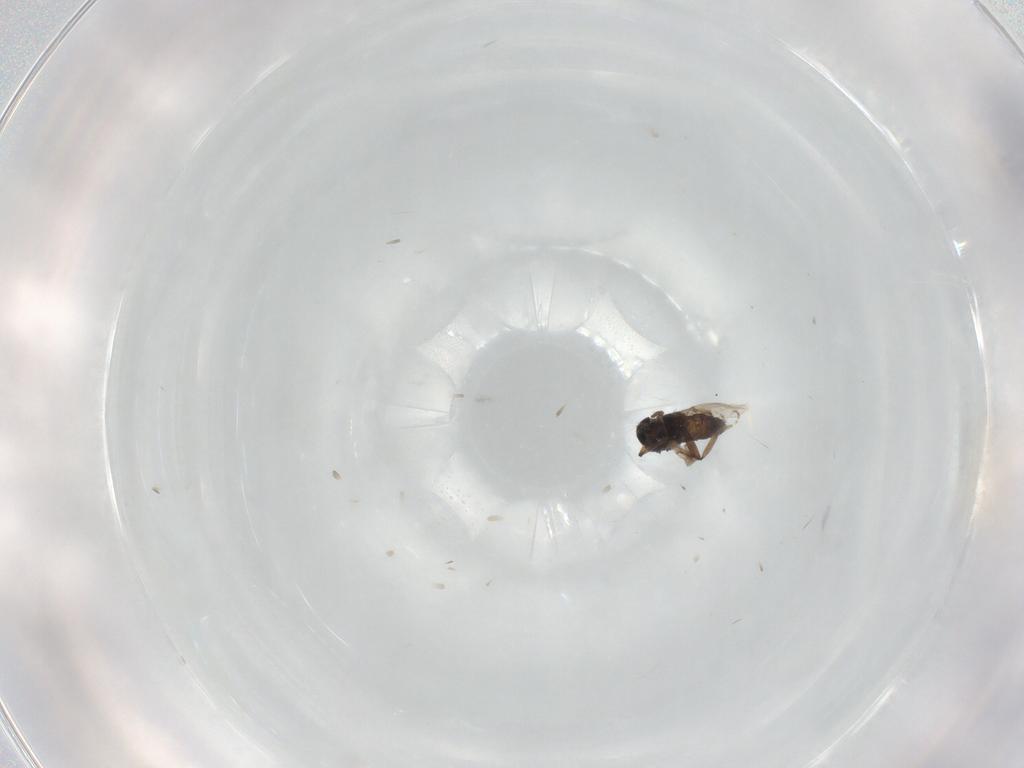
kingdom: Animalia
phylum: Arthropoda
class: Insecta
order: Diptera
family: Ceratopogonidae
